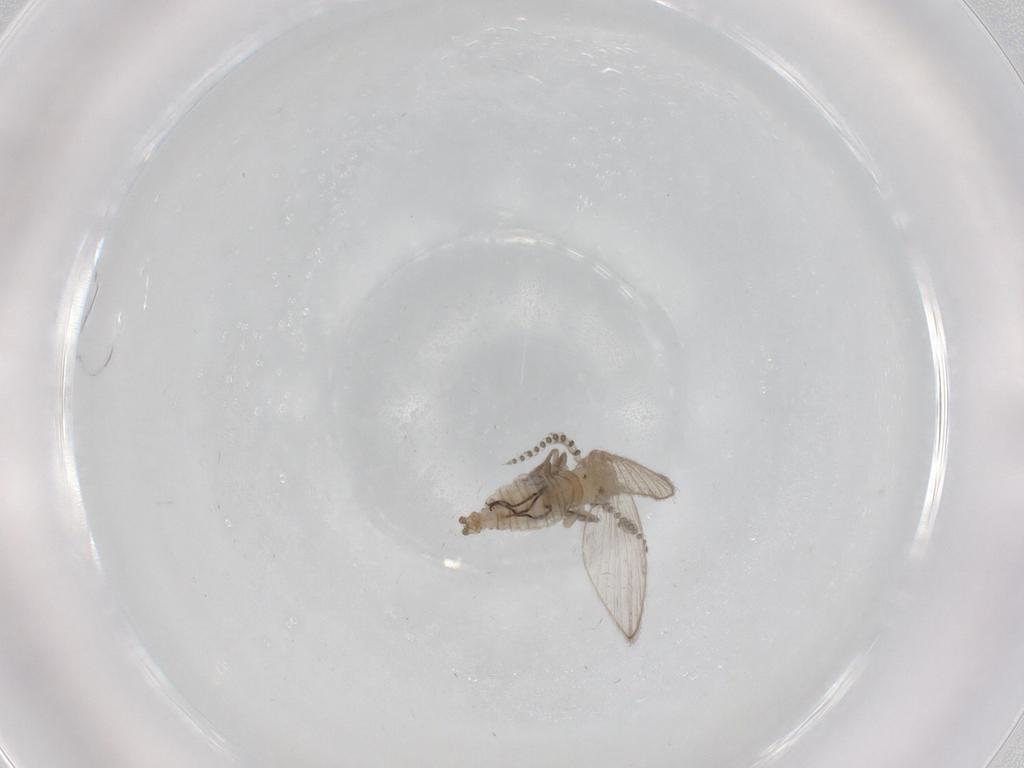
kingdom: Animalia
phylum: Arthropoda
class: Insecta
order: Diptera
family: Psychodidae
